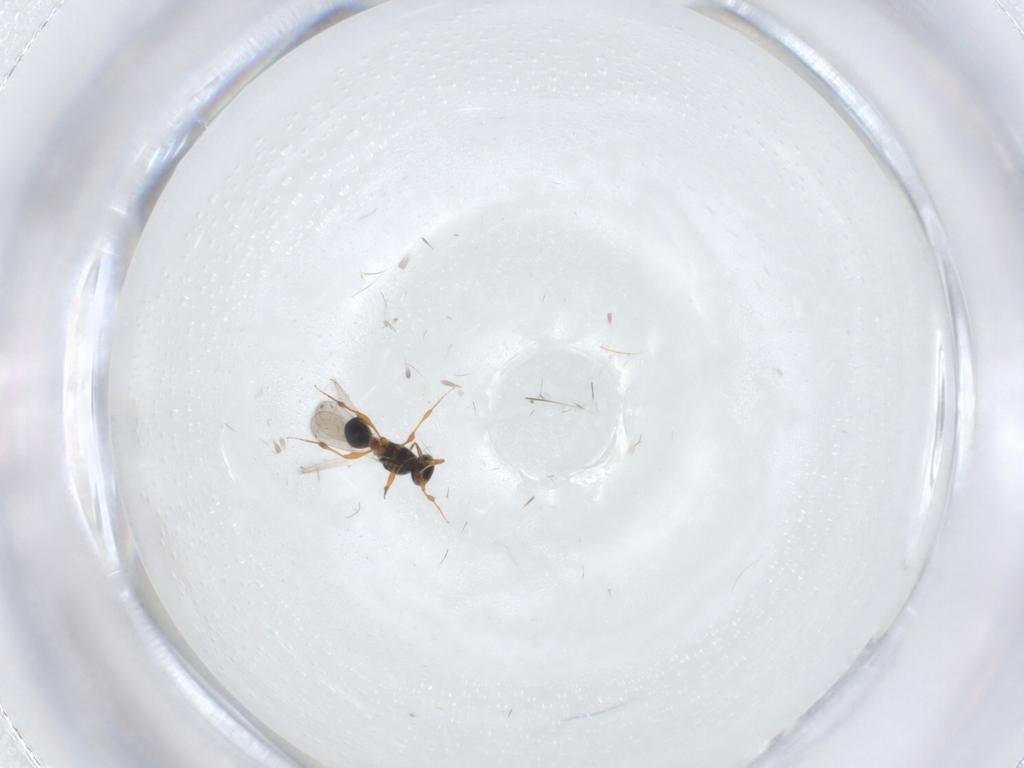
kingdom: Animalia
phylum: Arthropoda
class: Insecta
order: Hymenoptera
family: Platygastridae
